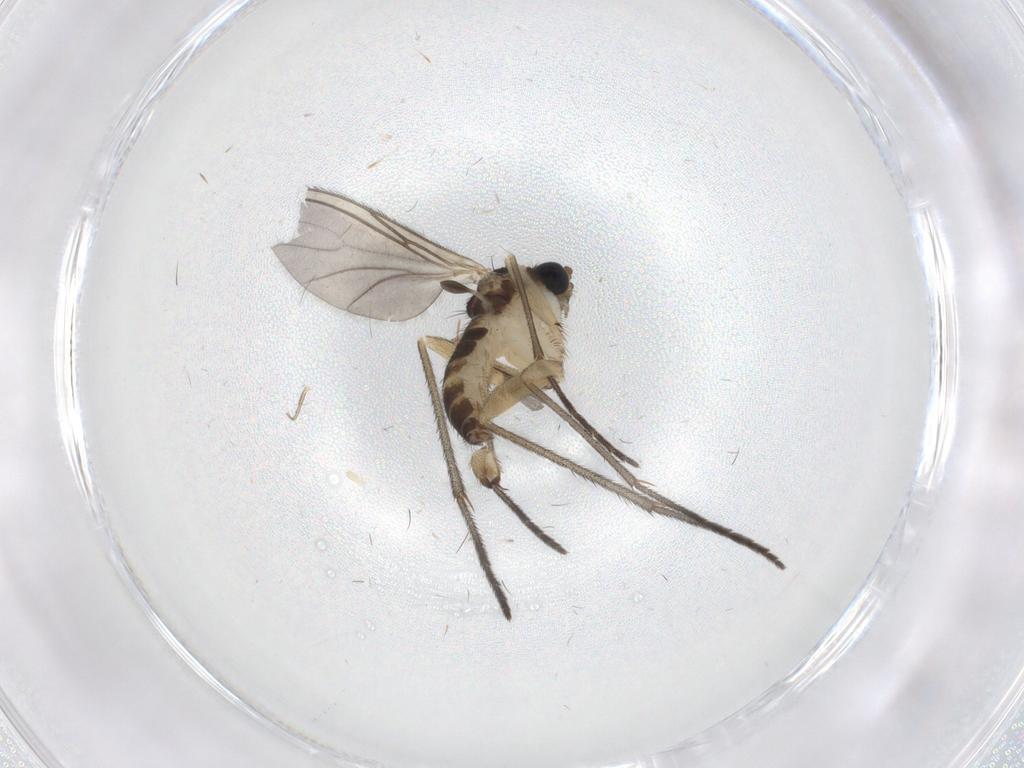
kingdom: Animalia
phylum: Arthropoda
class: Insecta
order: Diptera
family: Sciaridae
